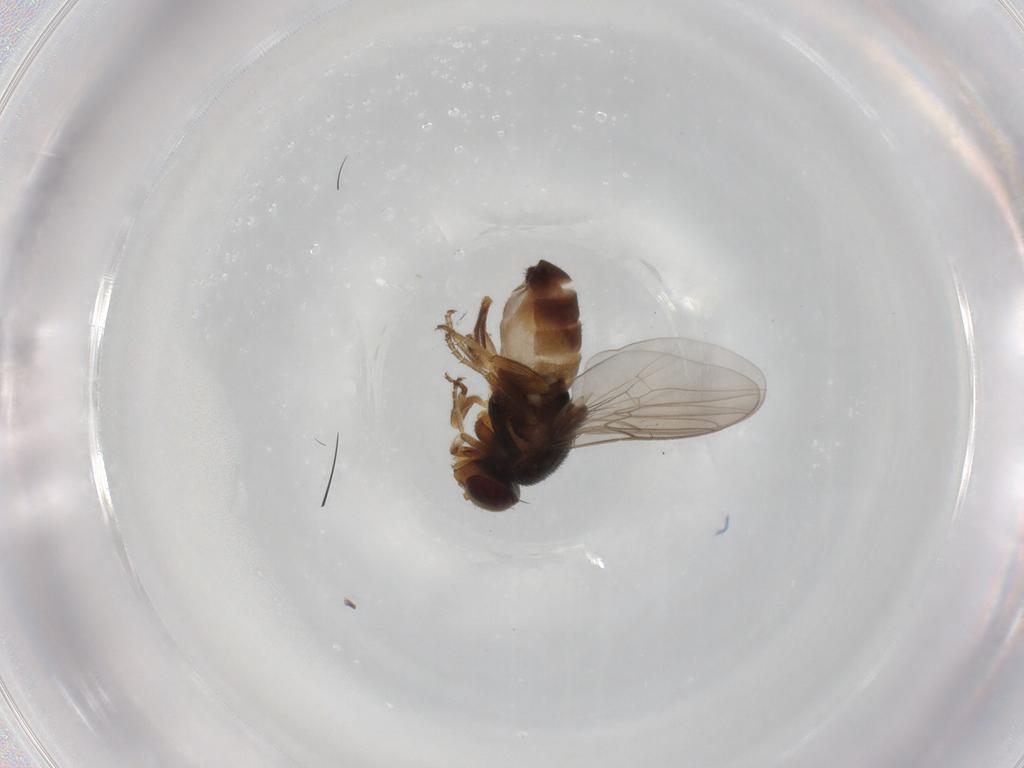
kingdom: Animalia
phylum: Arthropoda
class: Insecta
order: Diptera
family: Chloropidae
